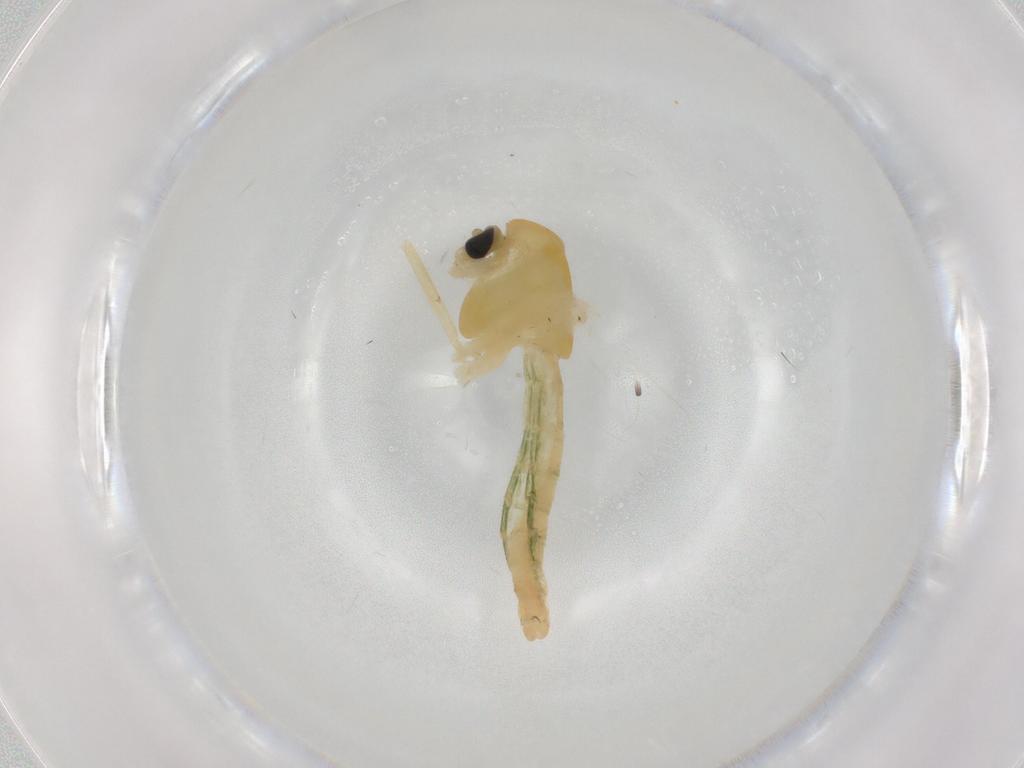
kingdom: Animalia
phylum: Arthropoda
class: Insecta
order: Diptera
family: Chironomidae
